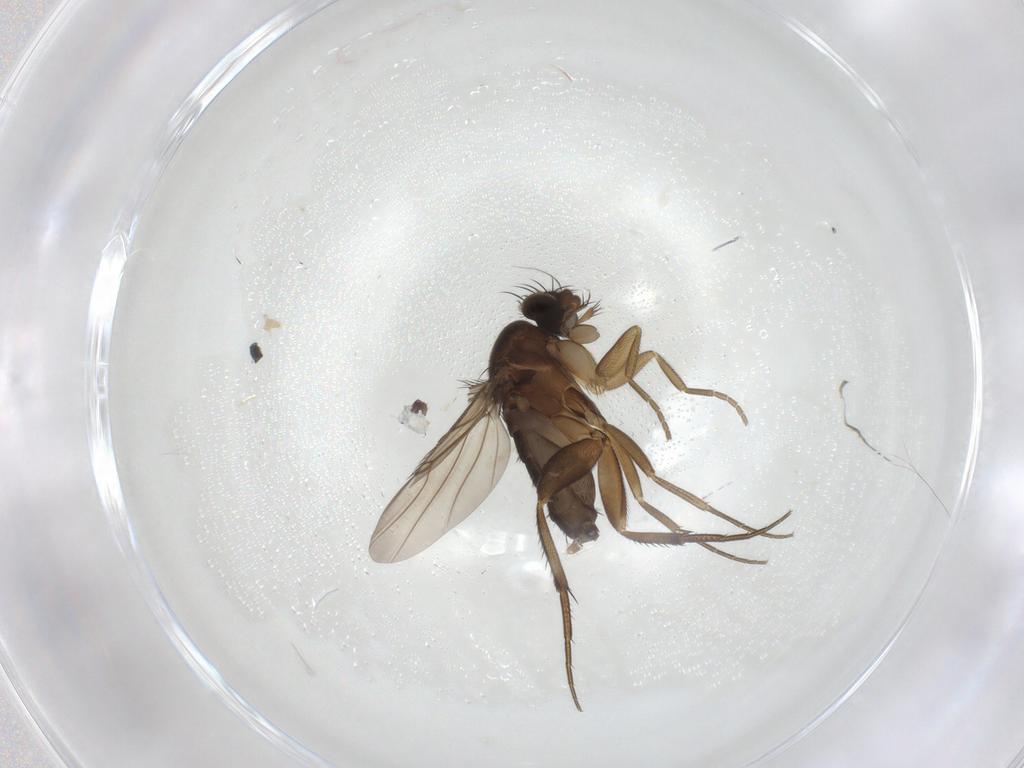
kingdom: Animalia
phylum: Arthropoda
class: Insecta
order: Diptera
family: Phoridae
